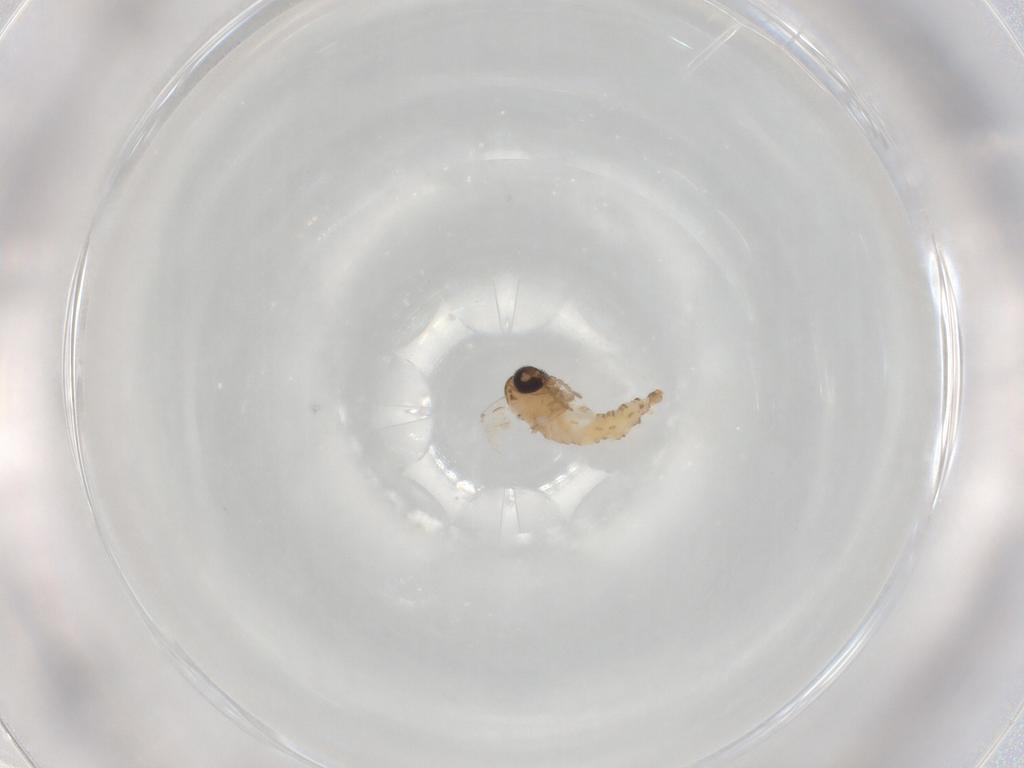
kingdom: Animalia
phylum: Arthropoda
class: Insecta
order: Diptera
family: Psychodidae
